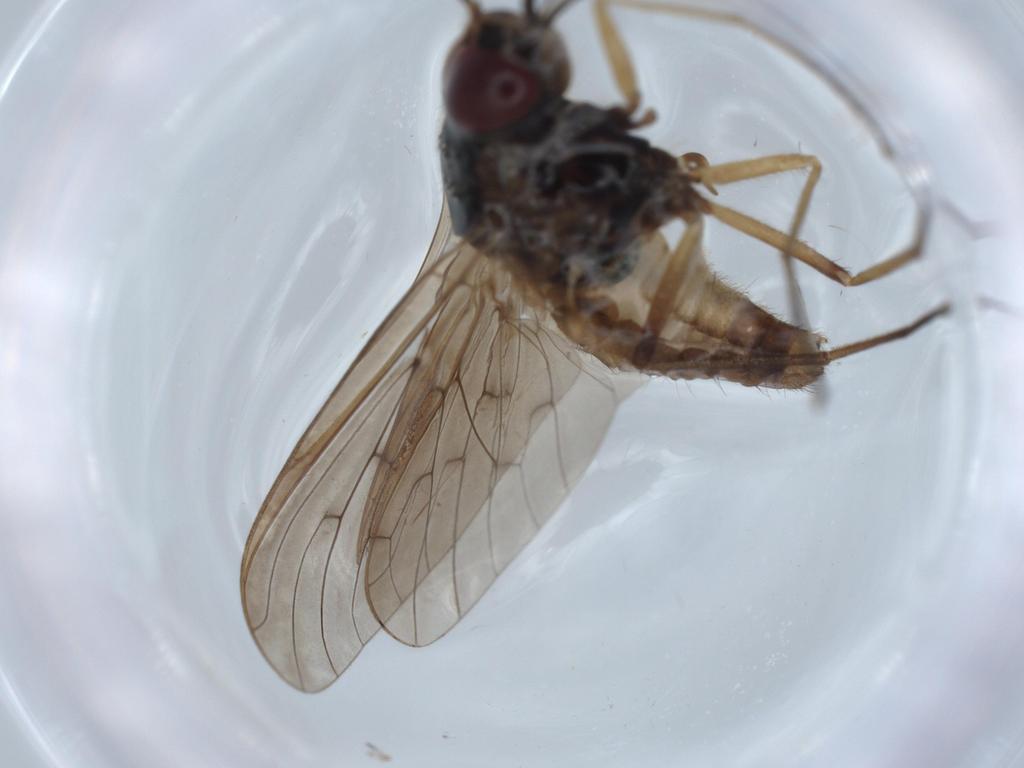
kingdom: Animalia
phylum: Arthropoda
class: Insecta
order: Diptera
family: Bombyliidae
